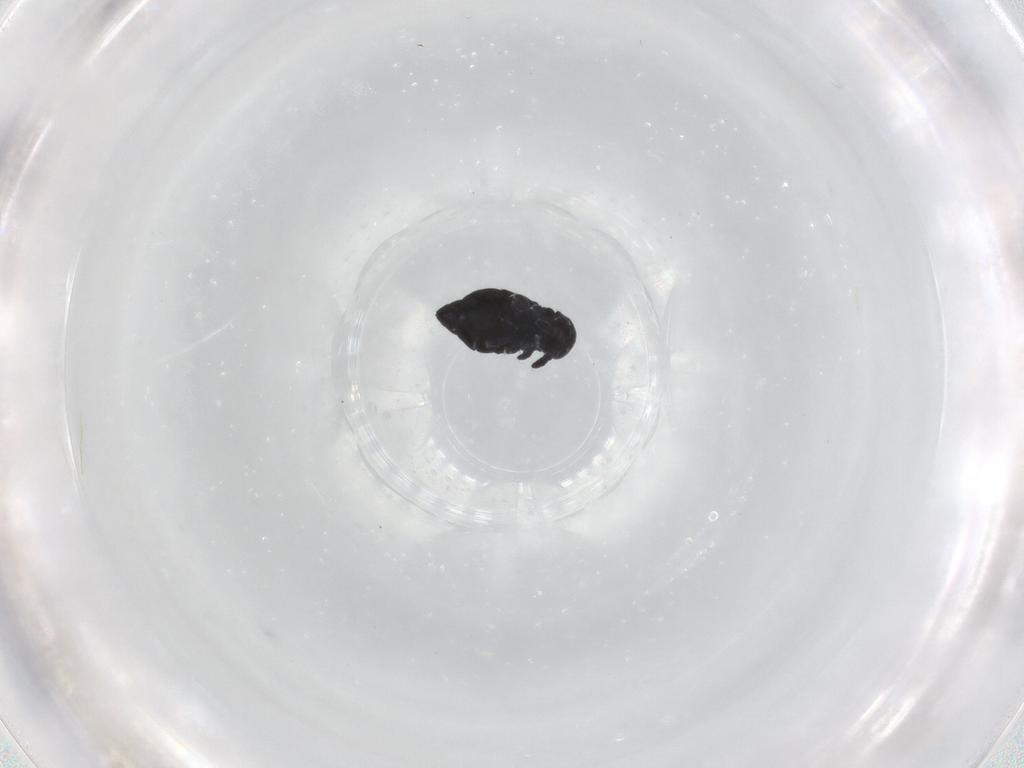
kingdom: Animalia
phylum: Arthropoda
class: Collembola
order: Poduromorpha
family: Hypogastruridae
